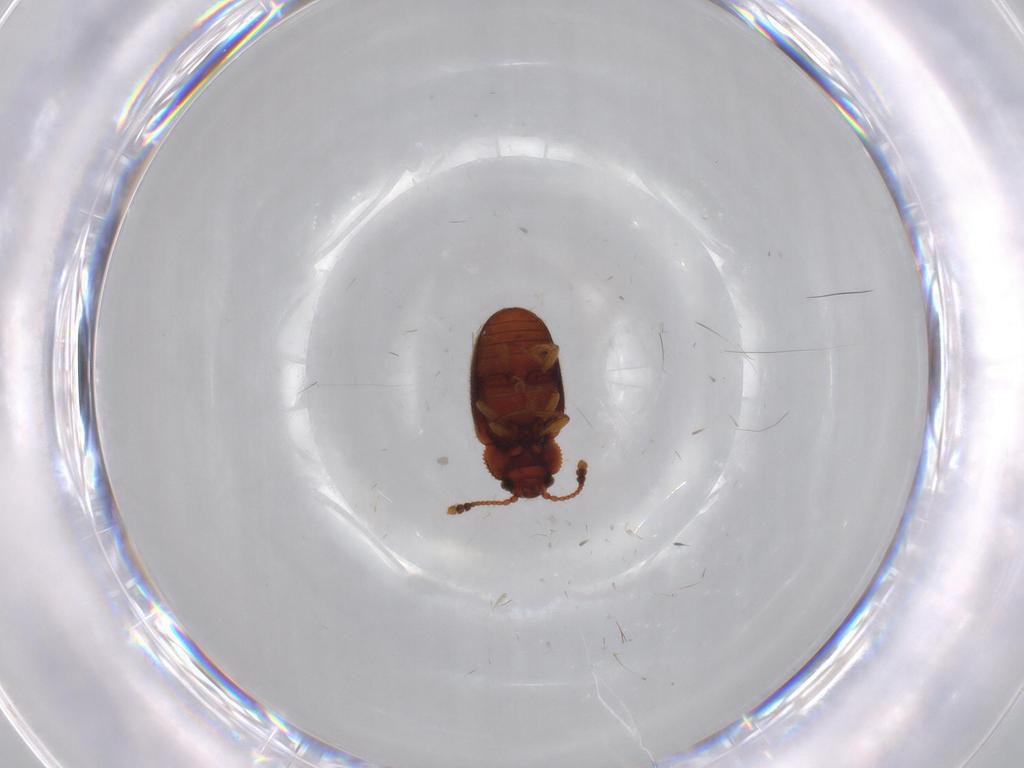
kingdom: Animalia
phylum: Arthropoda
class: Insecta
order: Coleoptera
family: Cryptophagidae
